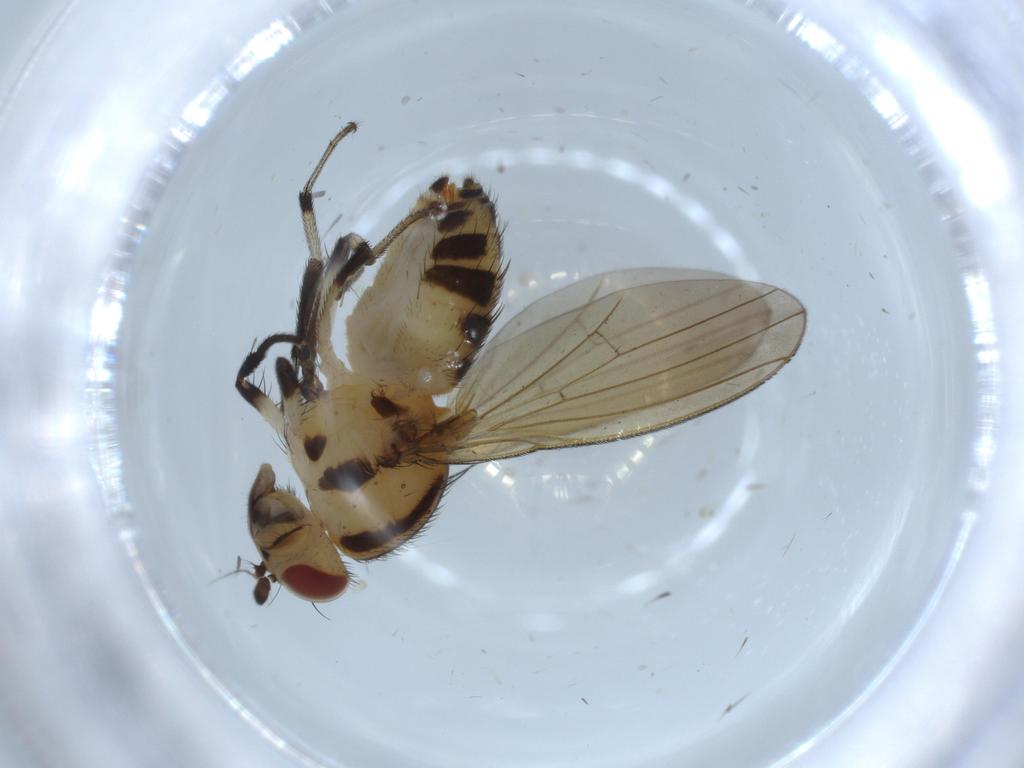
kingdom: Animalia
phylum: Arthropoda
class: Insecta
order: Diptera
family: Lauxaniidae
